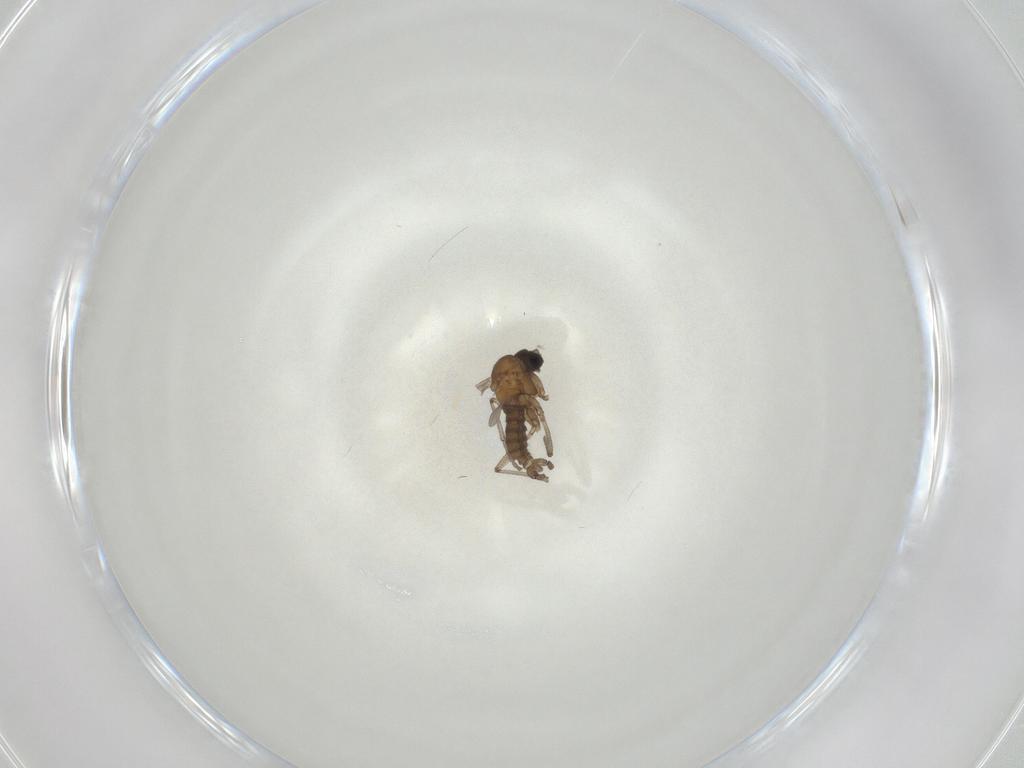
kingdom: Animalia
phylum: Arthropoda
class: Insecta
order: Diptera
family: Sciaridae
